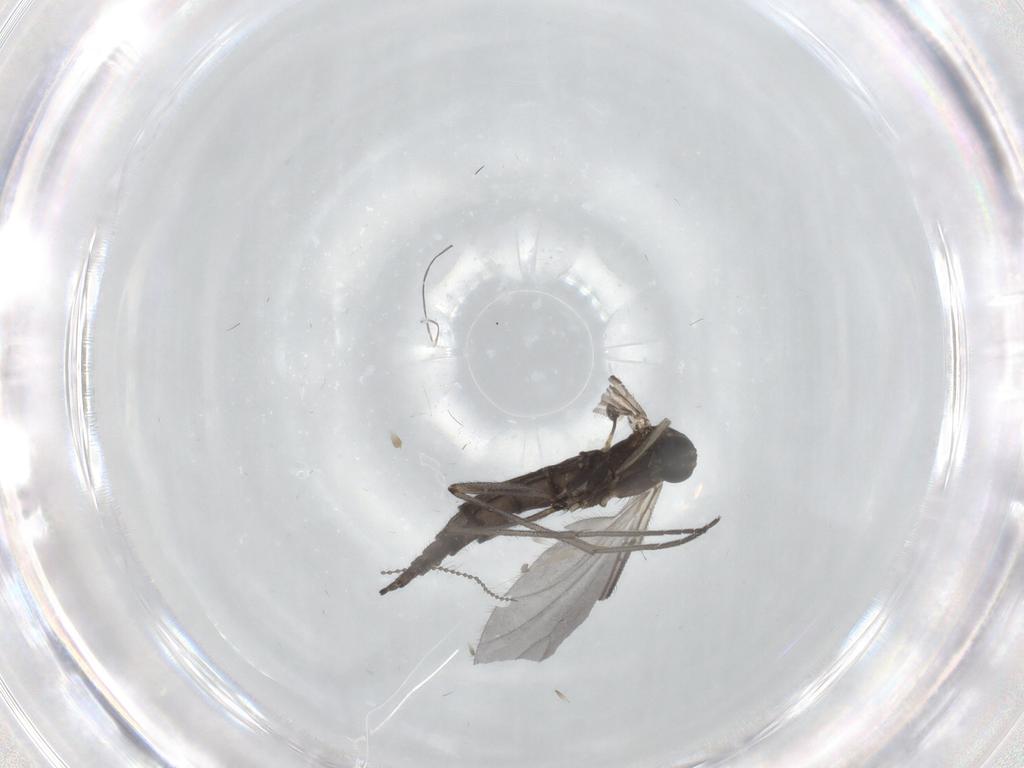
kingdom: Animalia
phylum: Arthropoda
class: Insecta
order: Diptera
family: Sciaridae
